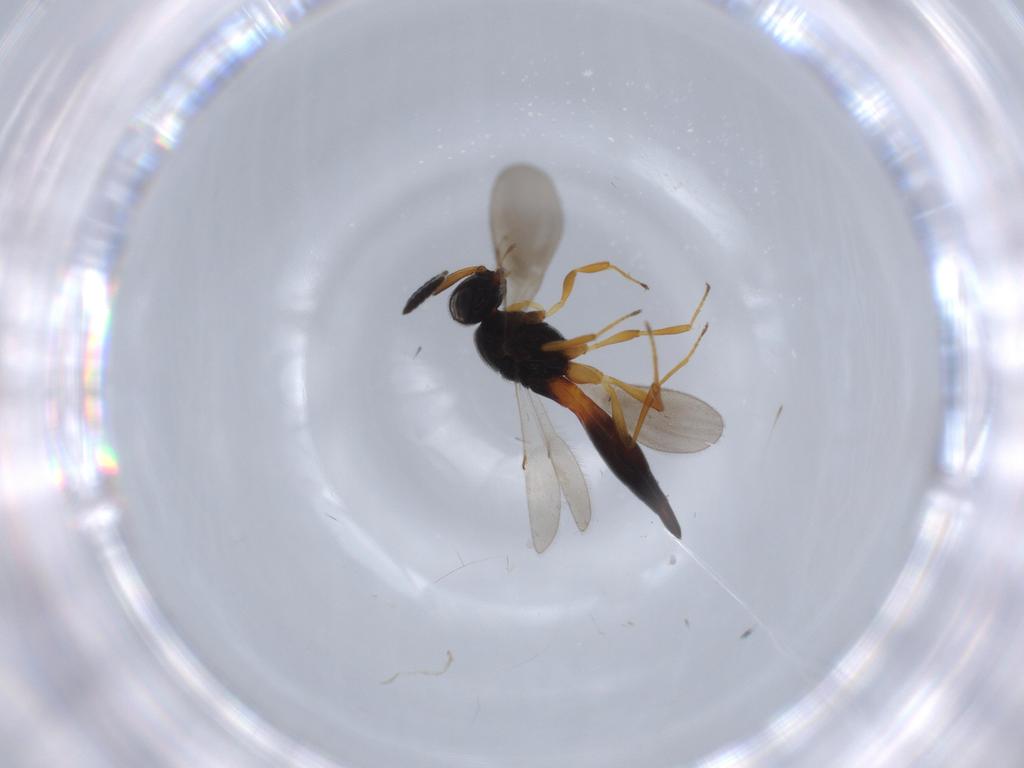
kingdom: Animalia
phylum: Arthropoda
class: Insecta
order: Hymenoptera
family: Scelionidae
